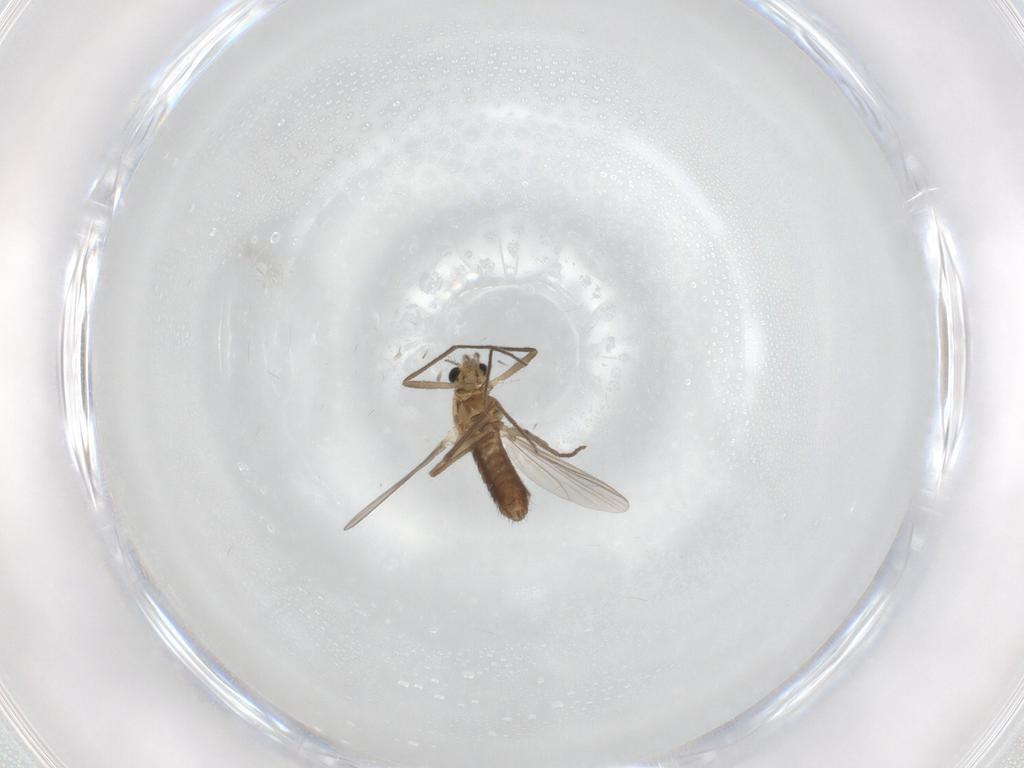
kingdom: Animalia
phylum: Arthropoda
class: Insecta
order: Diptera
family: Chironomidae
